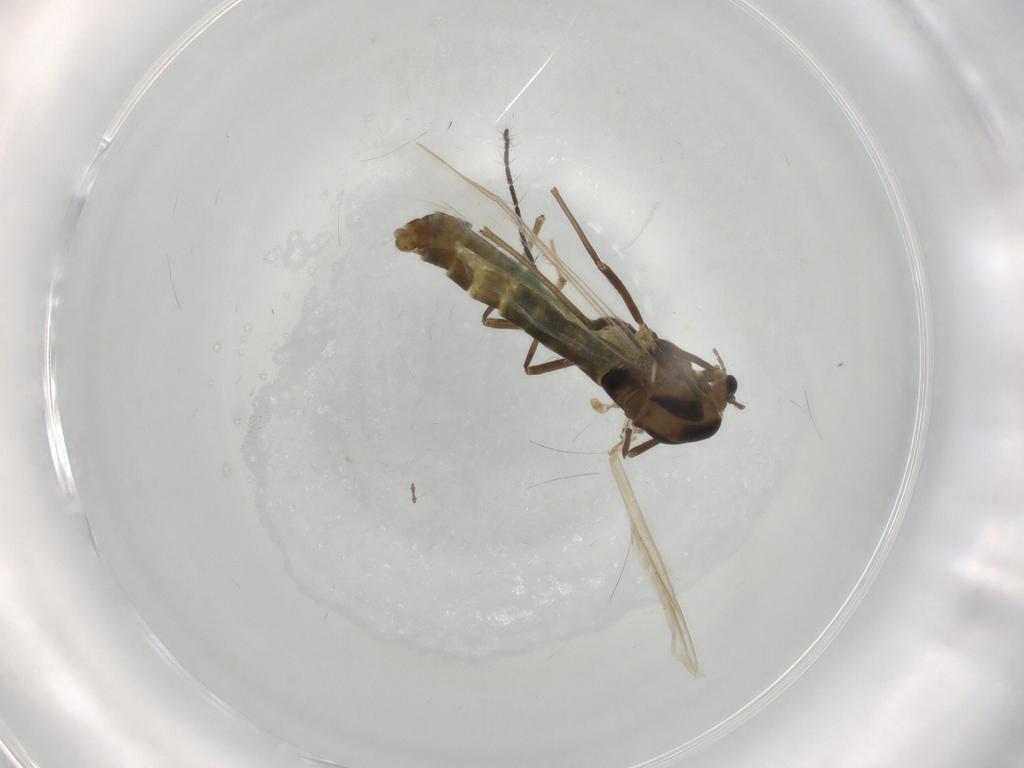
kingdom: Animalia
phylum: Arthropoda
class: Insecta
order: Diptera
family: Chironomidae
